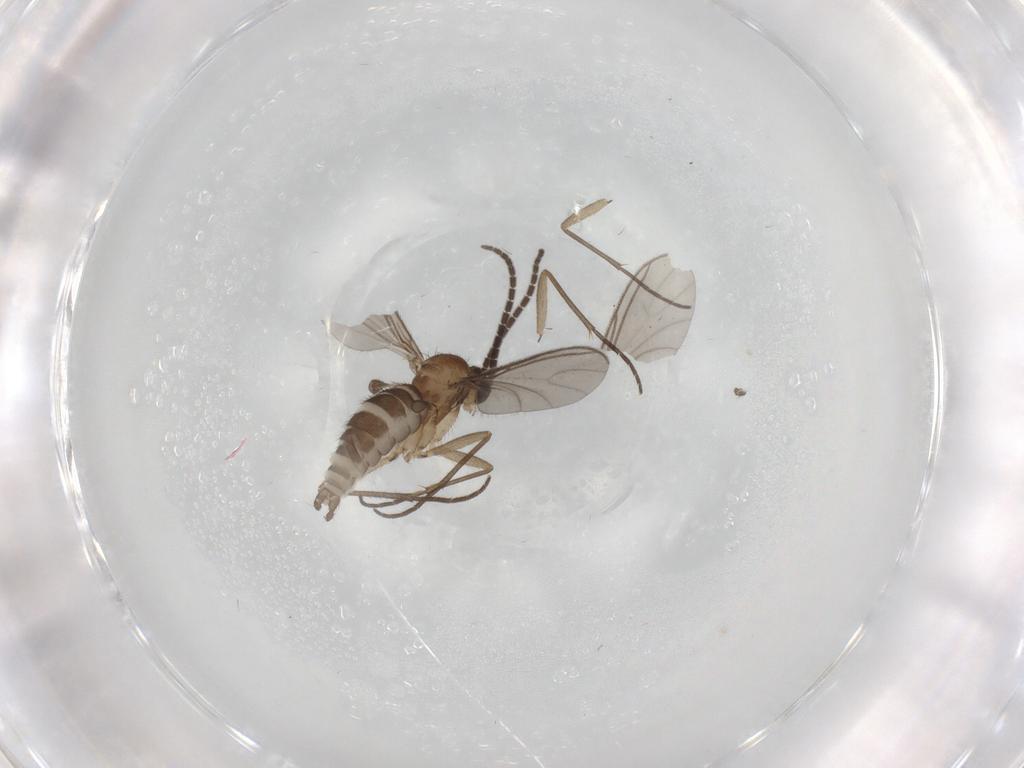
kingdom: Animalia
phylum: Arthropoda
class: Insecta
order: Diptera
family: Sciaridae
